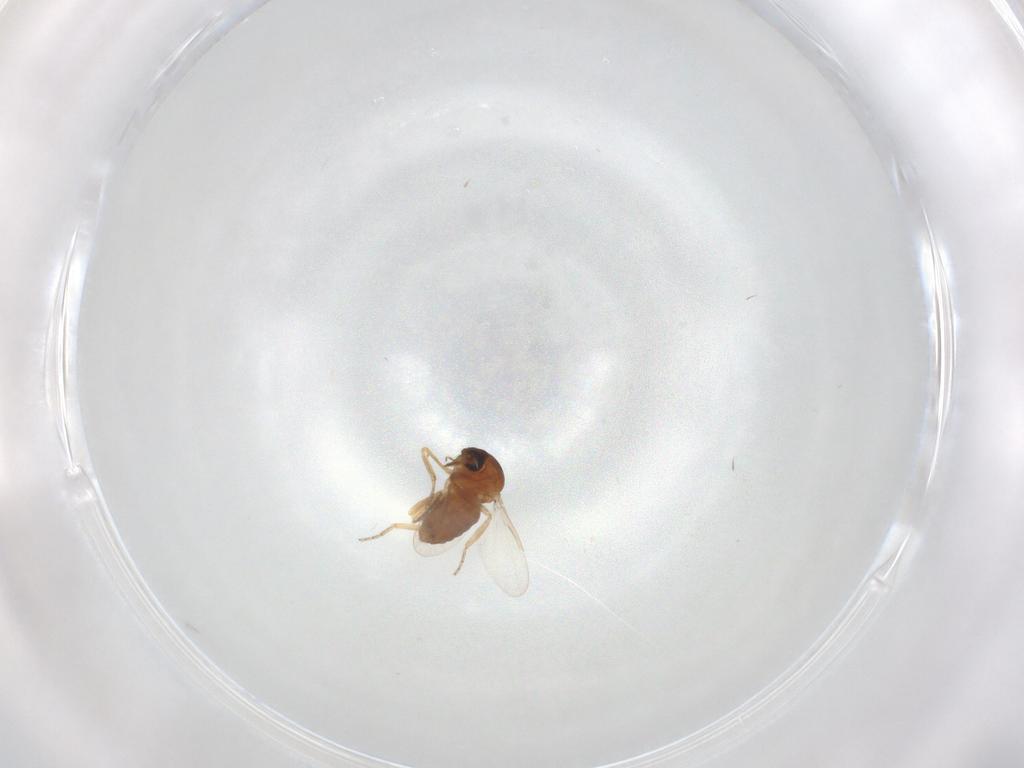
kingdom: Animalia
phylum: Arthropoda
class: Insecta
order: Diptera
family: Ceratopogonidae
